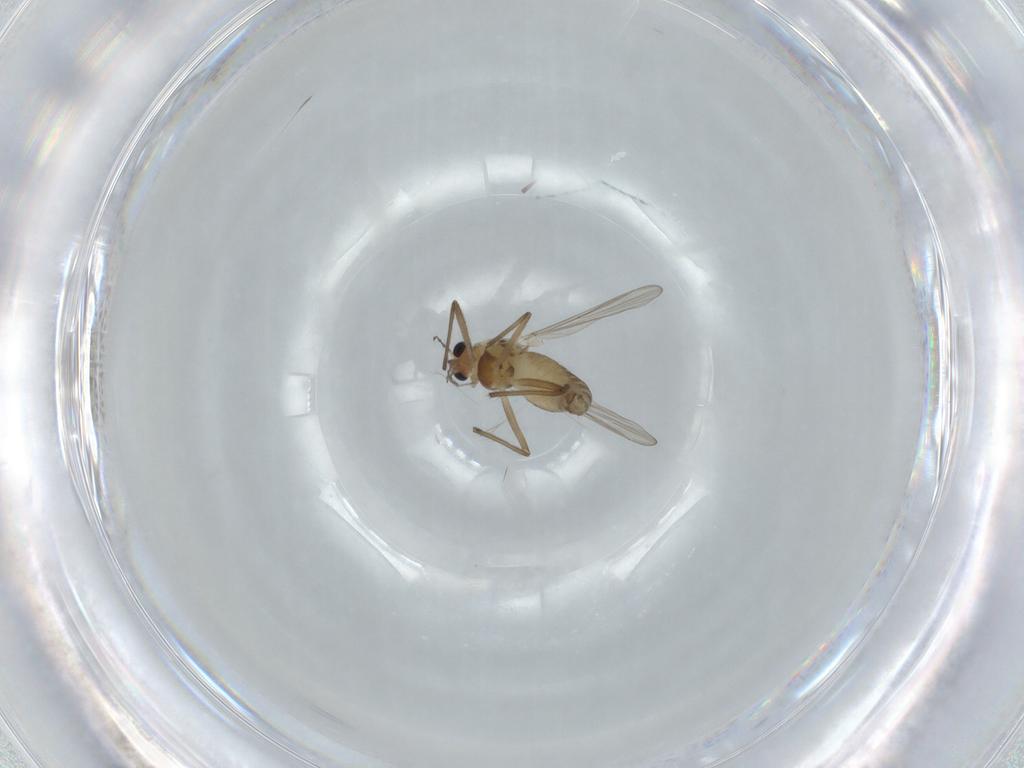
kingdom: Animalia
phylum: Arthropoda
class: Insecta
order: Diptera
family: Chironomidae
